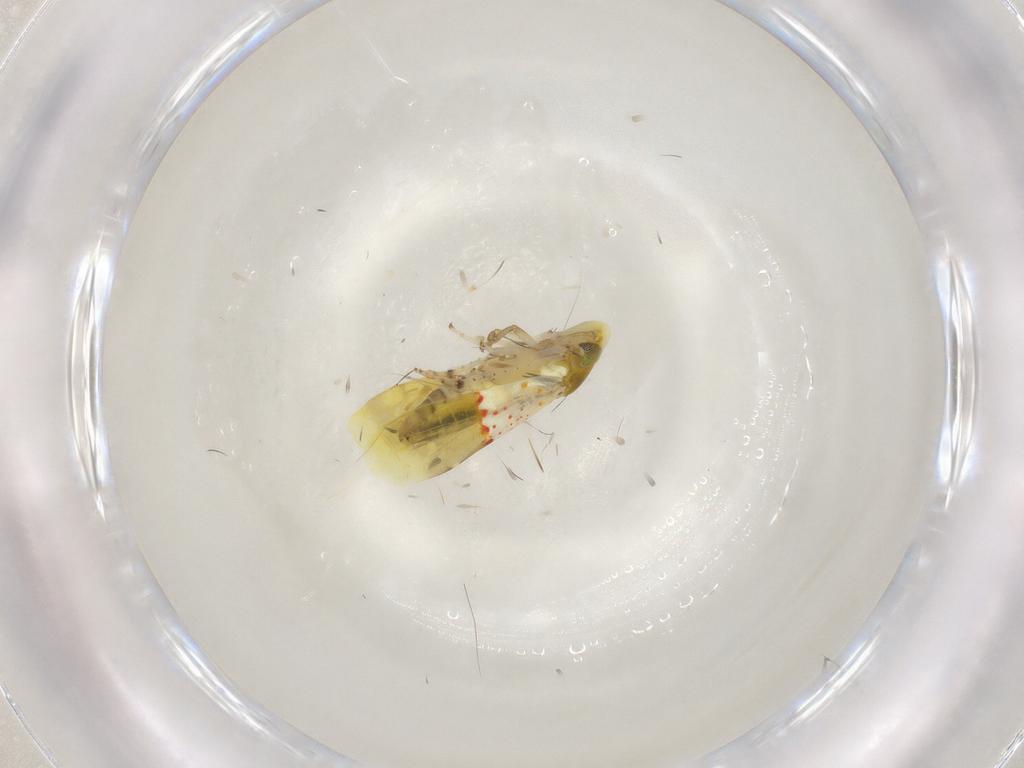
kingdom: Animalia
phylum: Arthropoda
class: Insecta
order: Hemiptera
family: Cicadellidae
